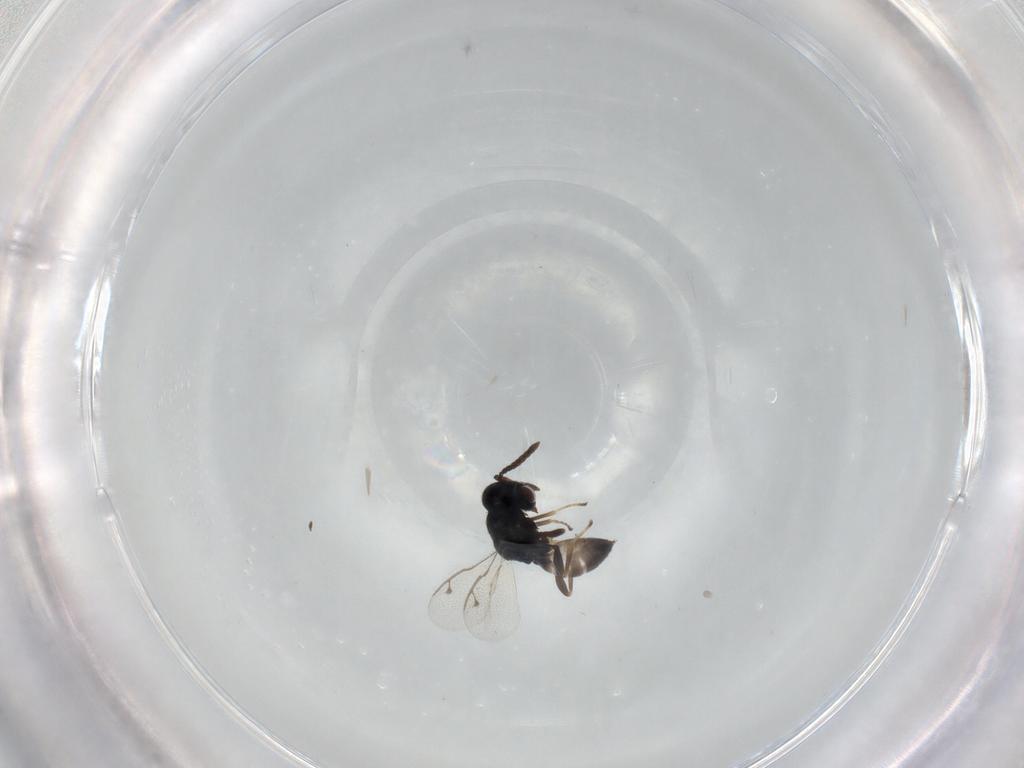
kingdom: Animalia
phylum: Arthropoda
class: Insecta
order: Hymenoptera
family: Pteromalidae
